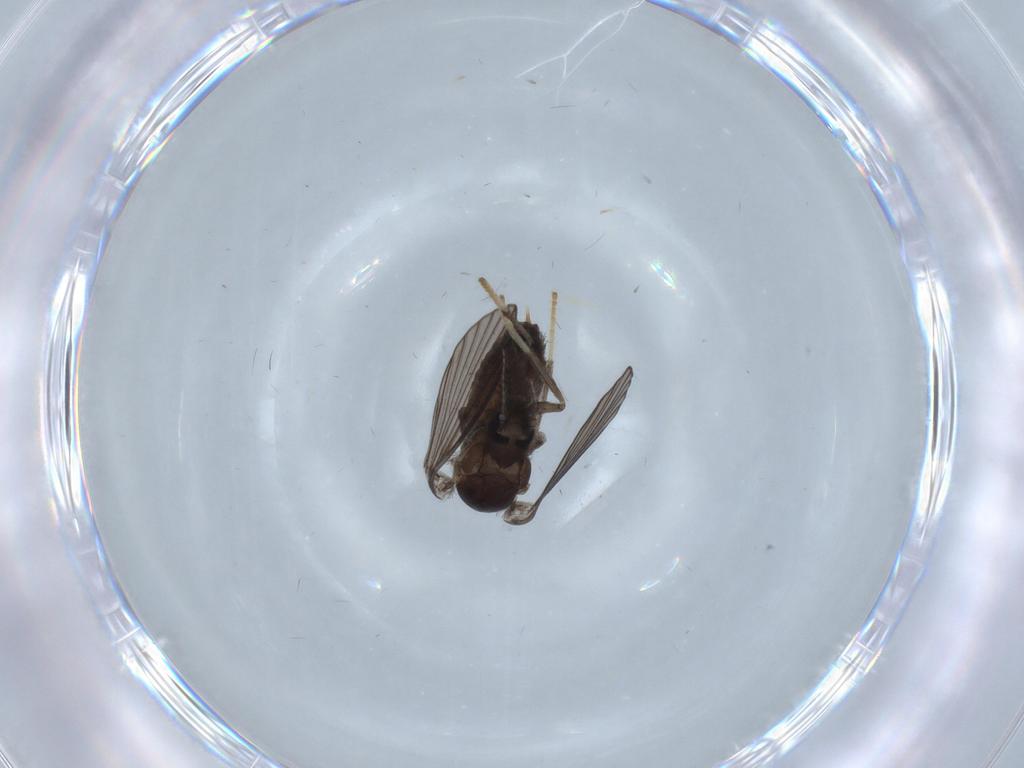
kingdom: Animalia
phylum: Arthropoda
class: Insecta
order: Diptera
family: Psychodidae
